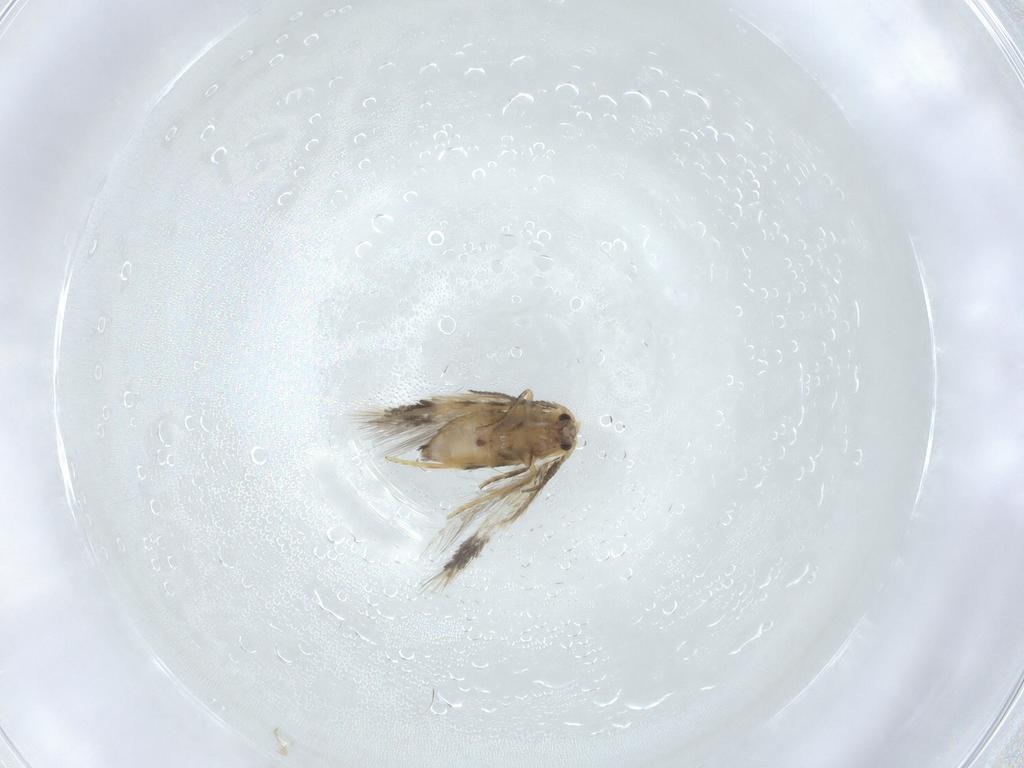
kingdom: Animalia
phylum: Arthropoda
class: Insecta
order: Lepidoptera
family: Nepticulidae
